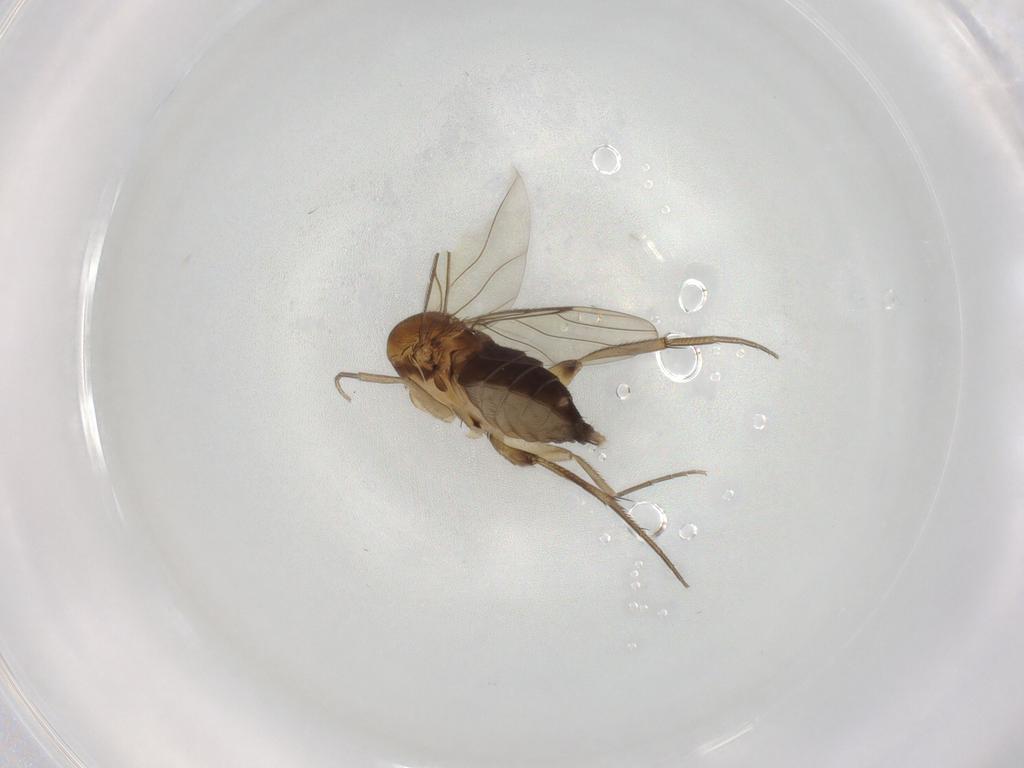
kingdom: Animalia
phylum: Arthropoda
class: Insecta
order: Diptera
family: Phoridae
